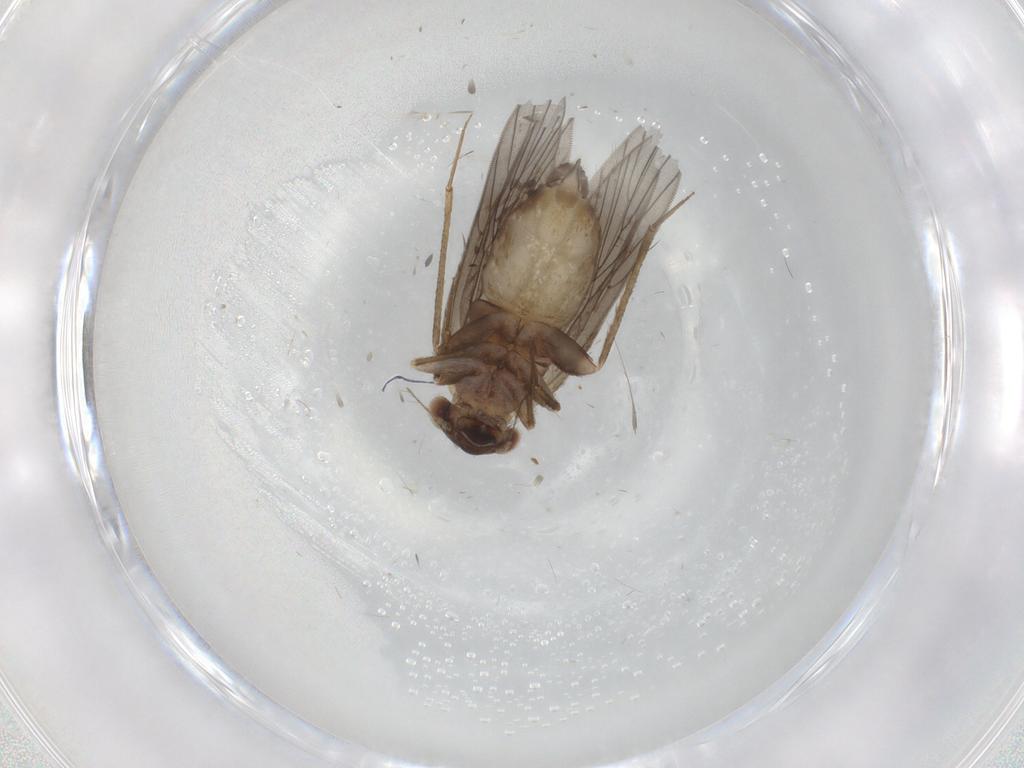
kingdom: Animalia
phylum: Arthropoda
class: Insecta
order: Psocodea
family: Lepidopsocidae
